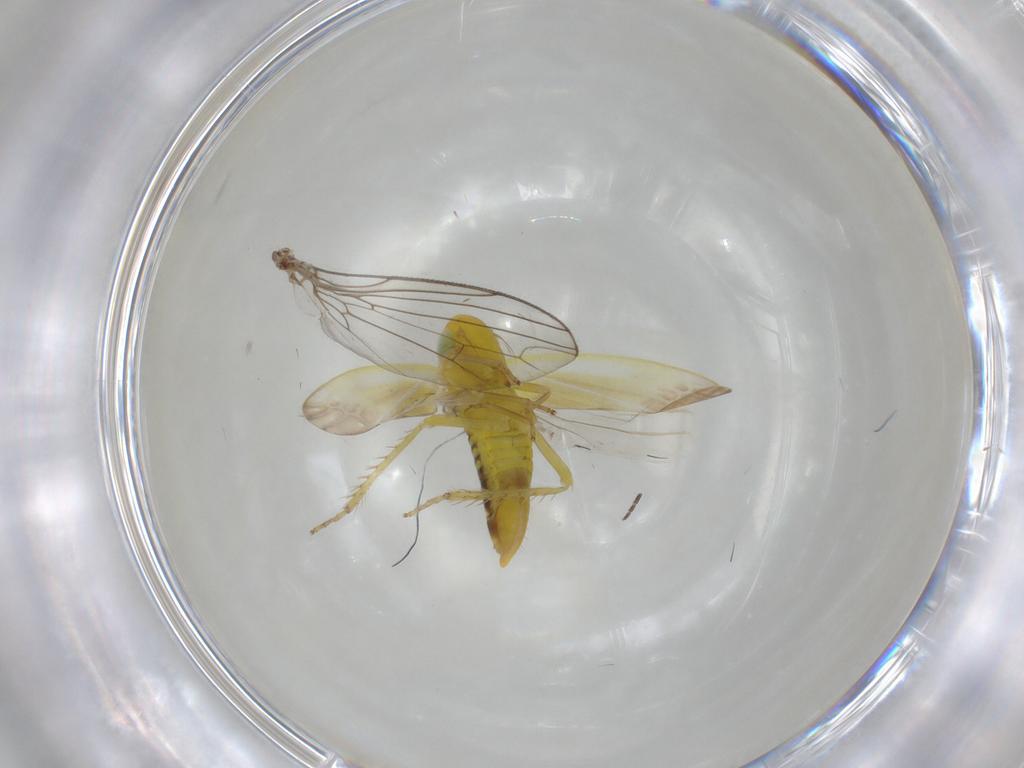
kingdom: Animalia
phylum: Arthropoda
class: Insecta
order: Hemiptera
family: Cicadellidae
